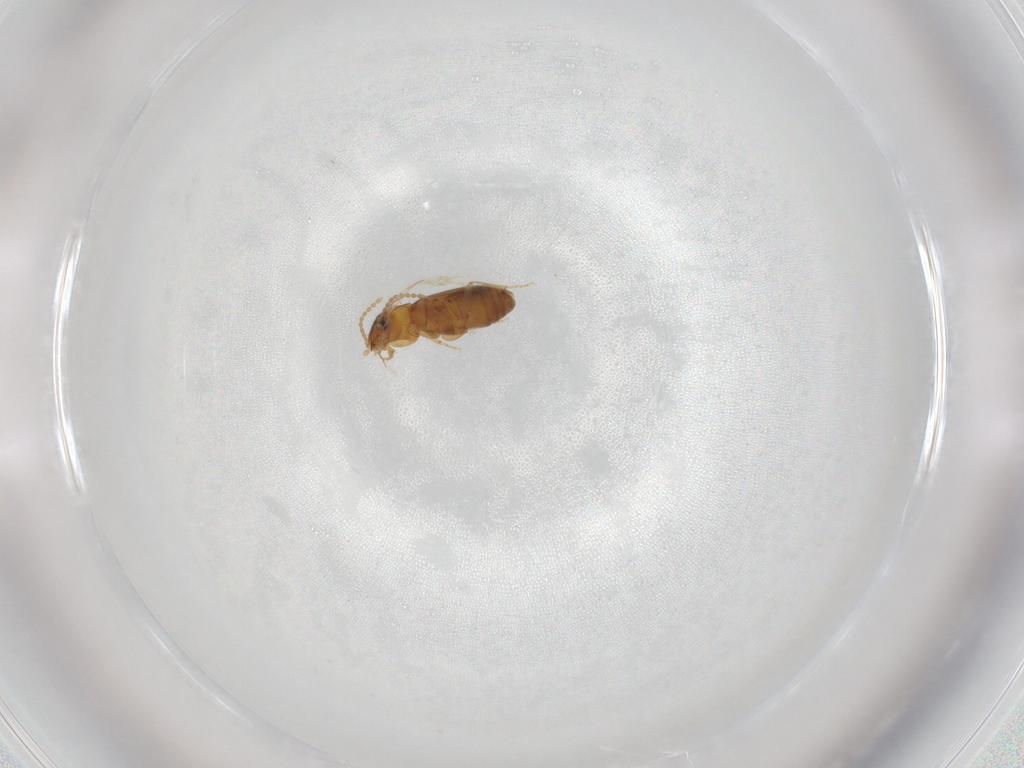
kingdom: Animalia
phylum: Arthropoda
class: Insecta
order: Coleoptera
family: Carabidae
